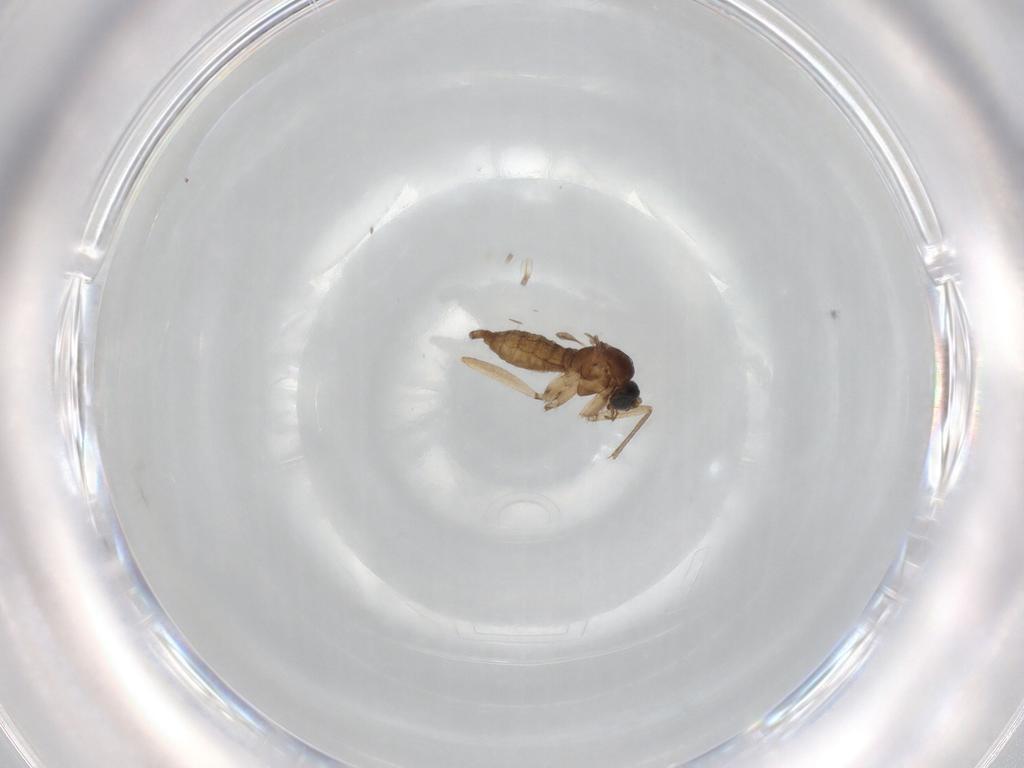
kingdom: Animalia
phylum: Arthropoda
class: Insecta
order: Diptera
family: Sciaridae
